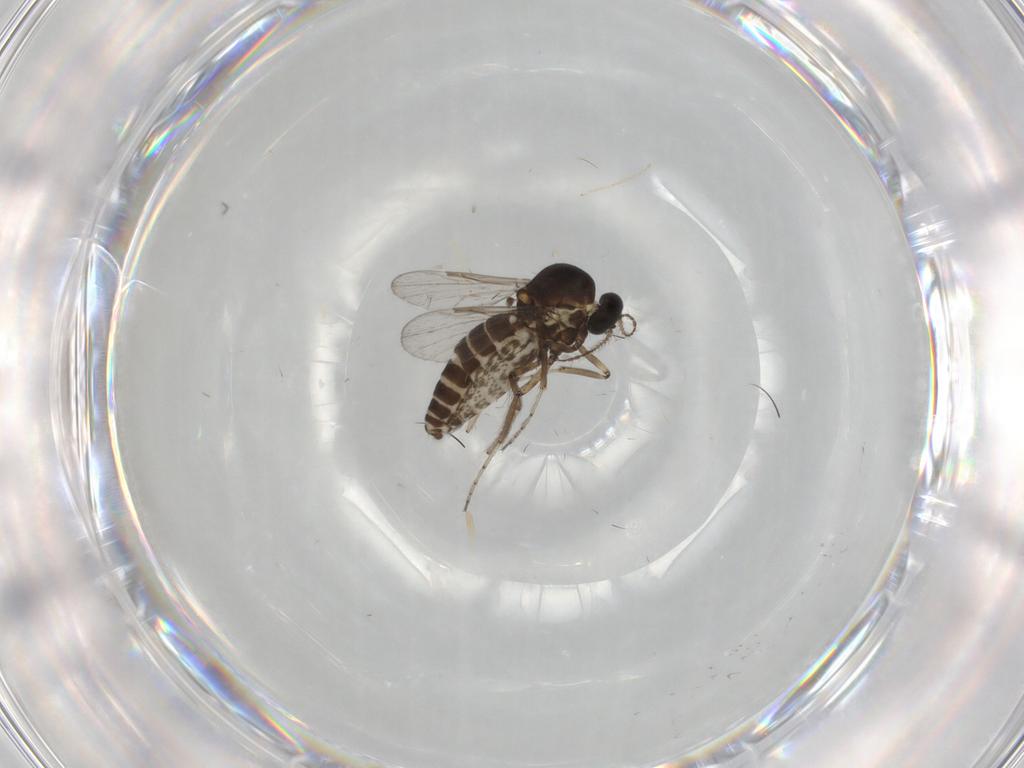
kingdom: Animalia
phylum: Arthropoda
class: Insecta
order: Diptera
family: Ceratopogonidae
